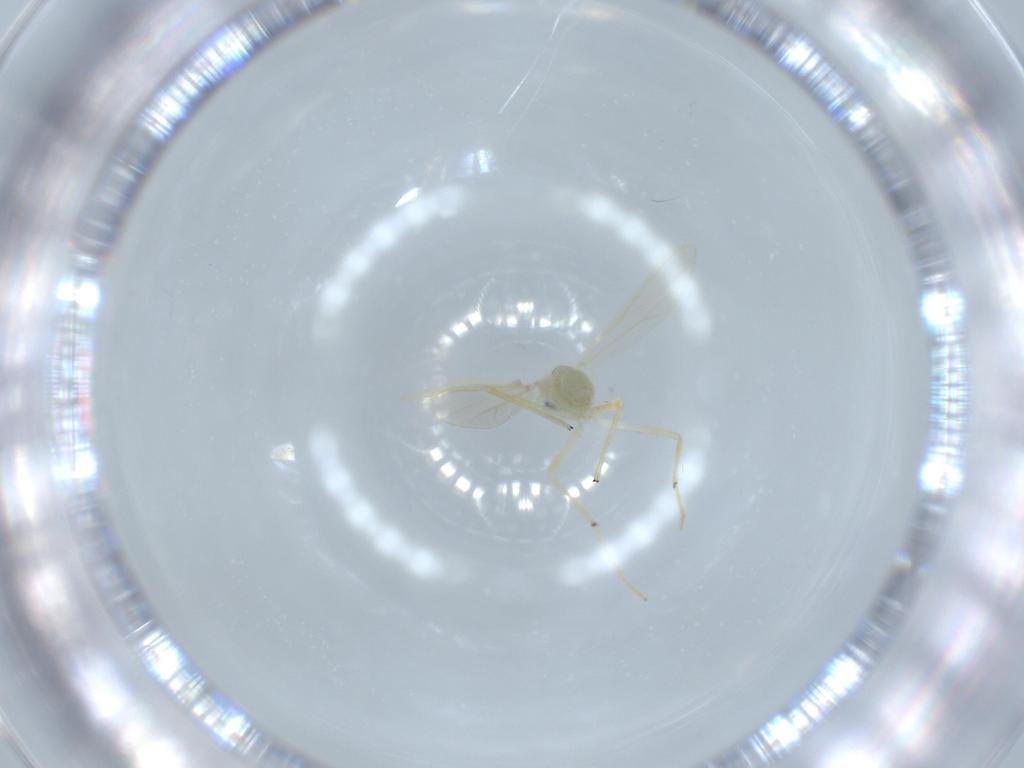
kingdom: Animalia
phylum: Arthropoda
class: Insecta
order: Diptera
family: Chironomidae
